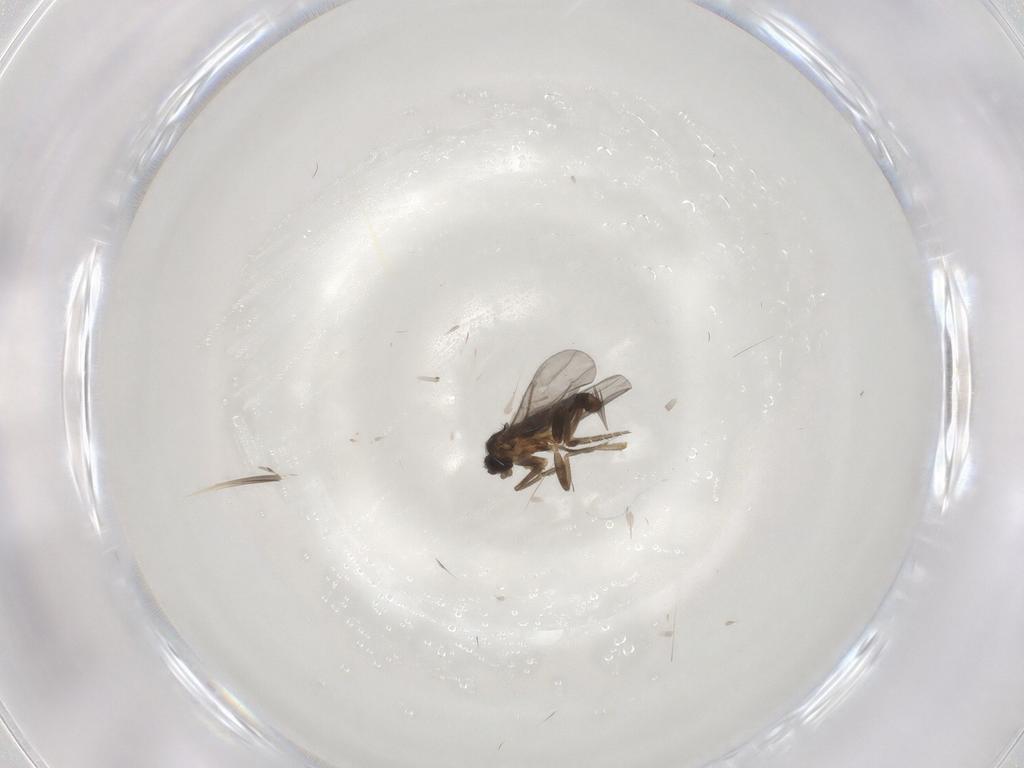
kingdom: Animalia
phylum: Arthropoda
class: Insecta
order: Diptera
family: Phoridae
